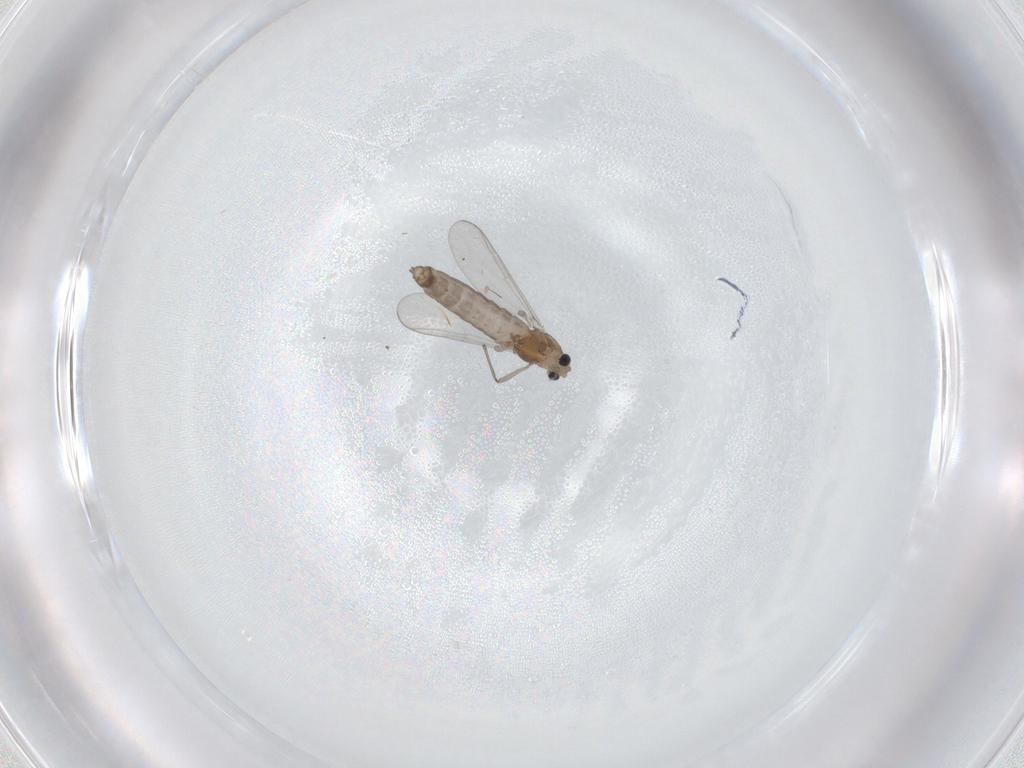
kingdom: Animalia
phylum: Arthropoda
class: Insecta
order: Diptera
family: Chironomidae
